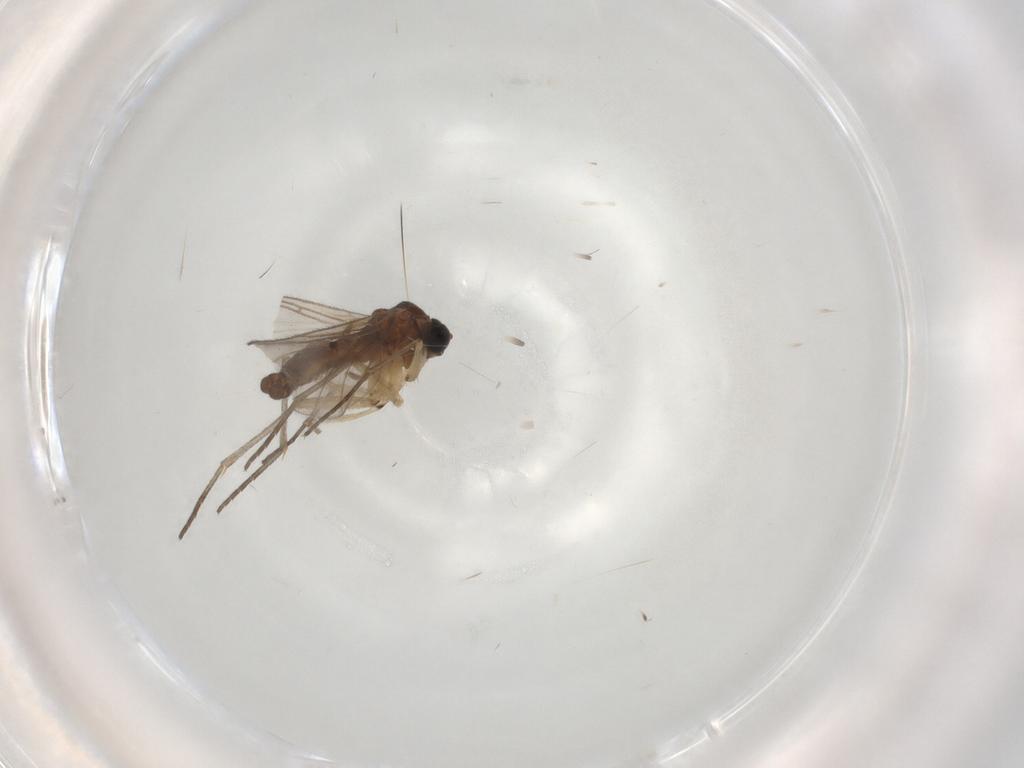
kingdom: Animalia
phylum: Arthropoda
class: Insecta
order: Diptera
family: Sciaridae
